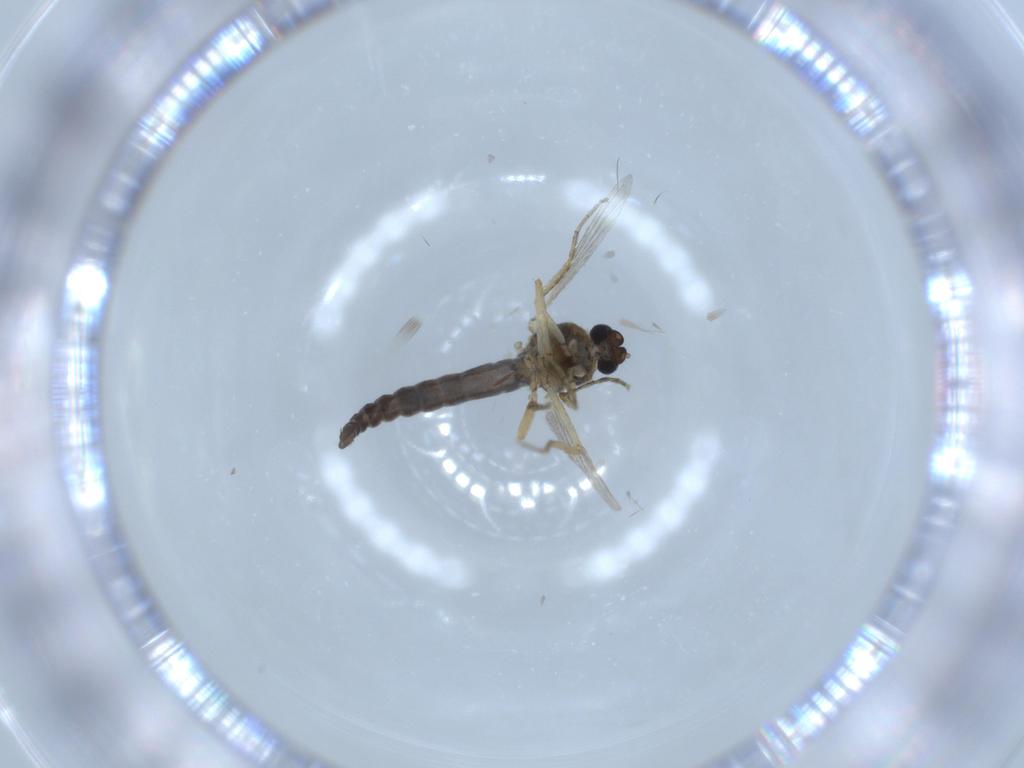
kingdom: Animalia
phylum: Arthropoda
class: Insecta
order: Diptera
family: Ceratopogonidae
